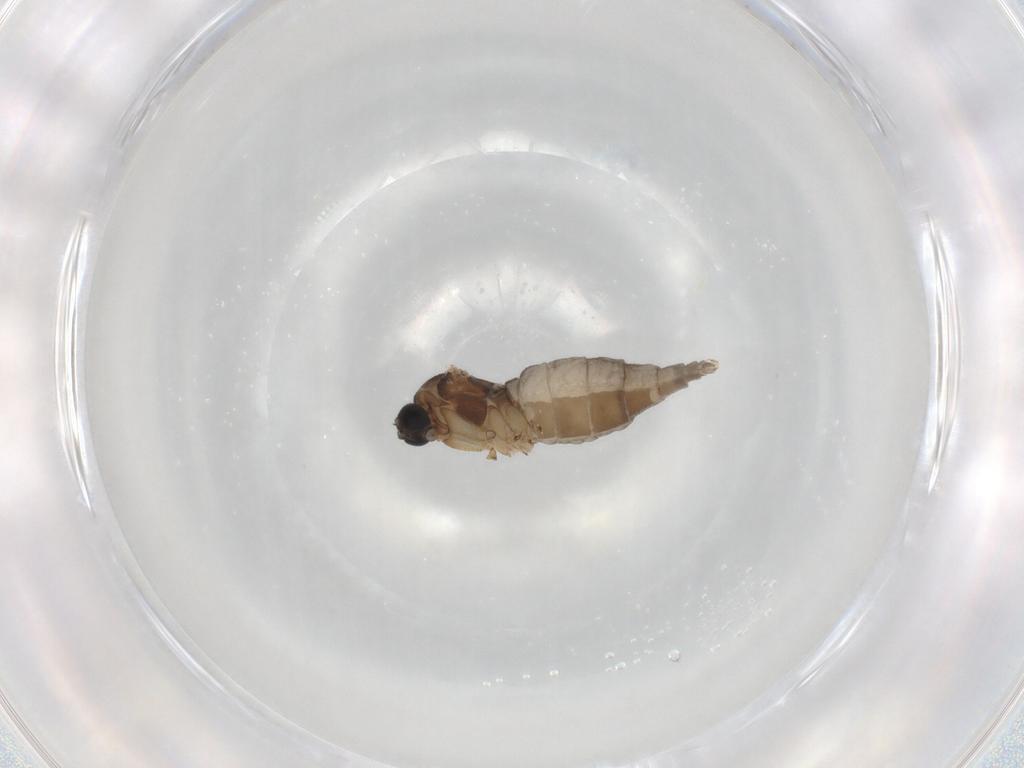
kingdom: Animalia
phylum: Arthropoda
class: Insecta
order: Diptera
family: Sciaridae
